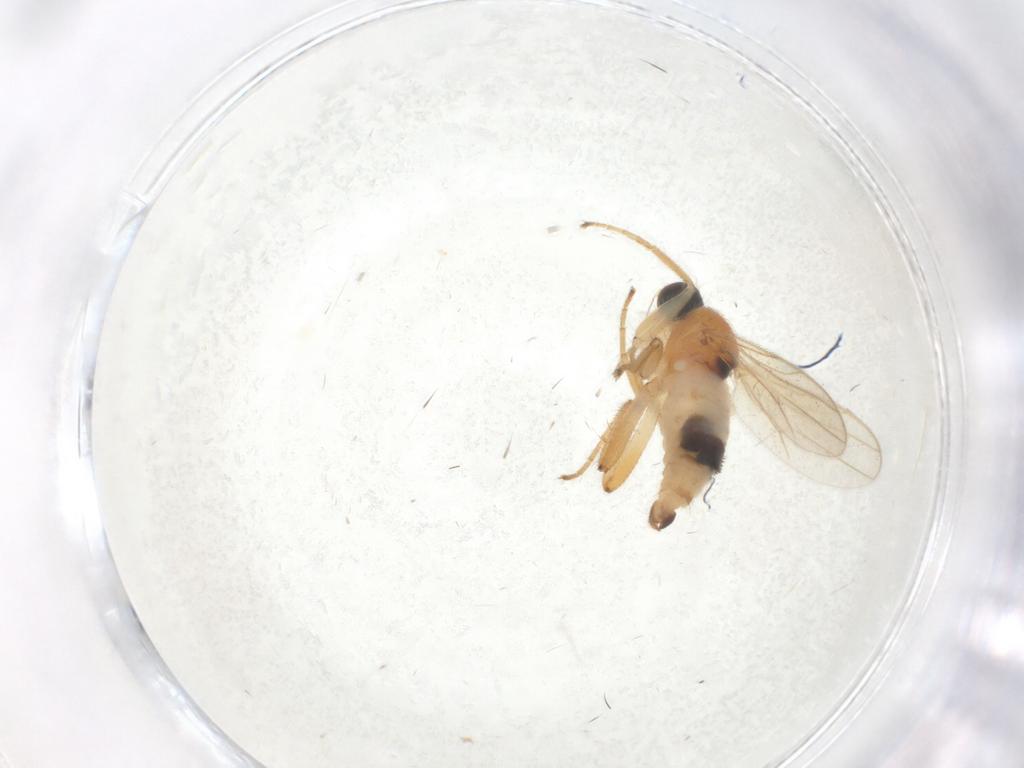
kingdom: Animalia
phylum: Arthropoda
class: Insecta
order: Diptera
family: Hybotidae
